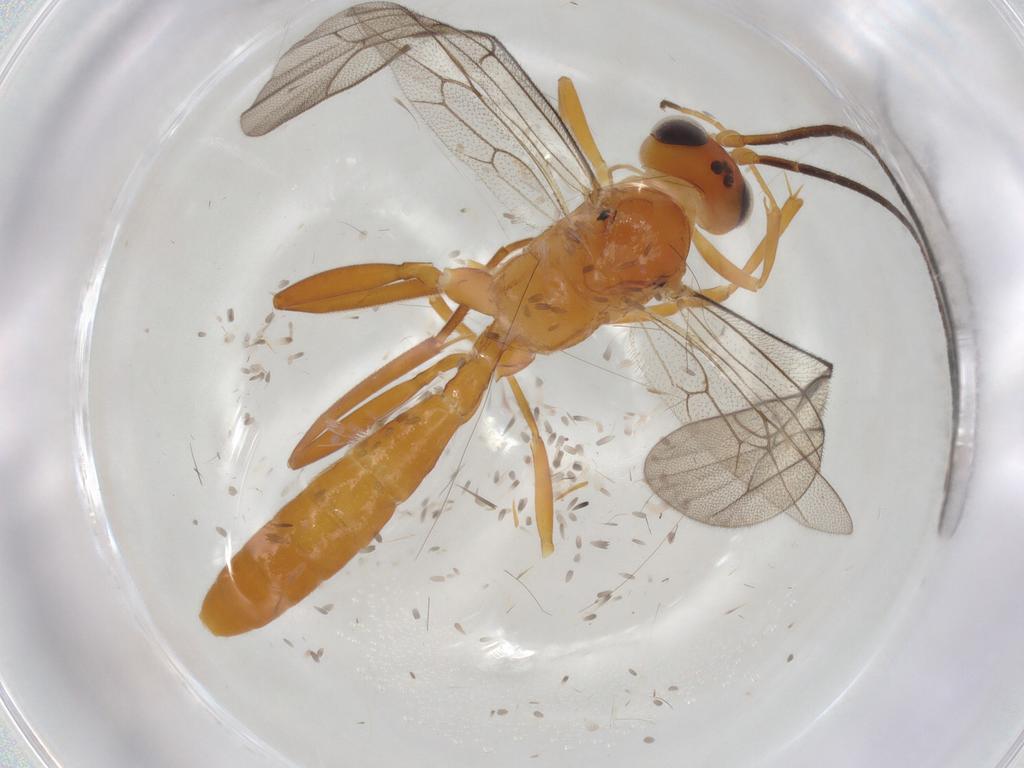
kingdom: Animalia
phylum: Arthropoda
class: Insecta
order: Hymenoptera
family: Ichneumonidae
